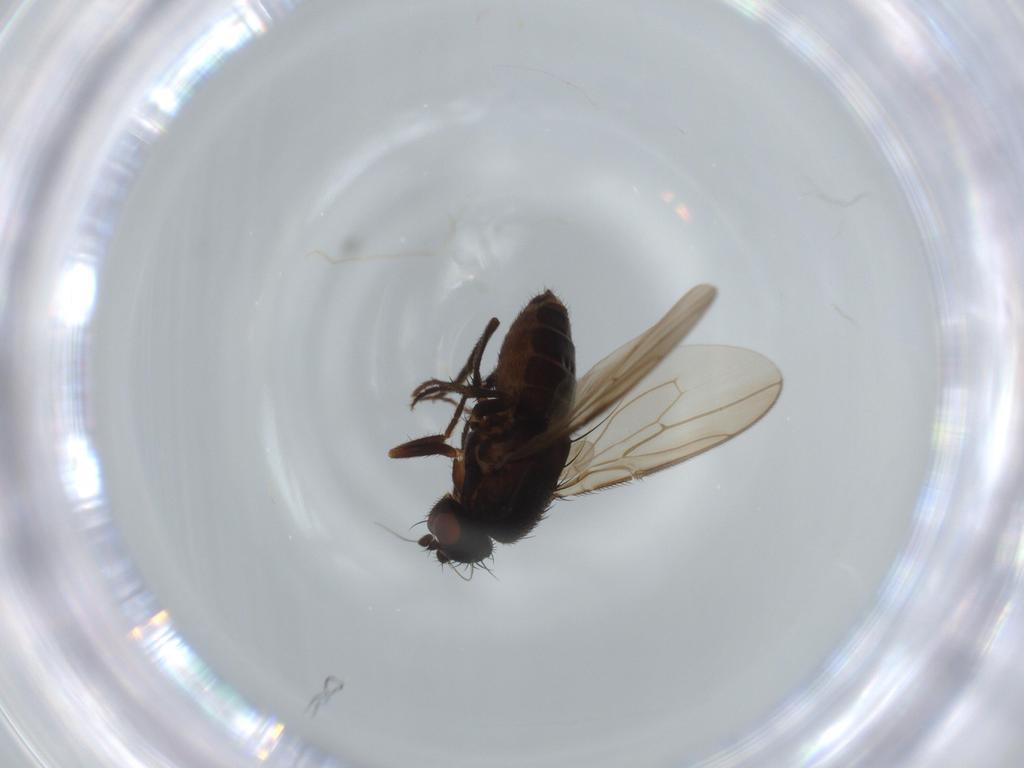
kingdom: Animalia
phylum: Arthropoda
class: Insecta
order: Diptera
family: Sphaeroceridae
